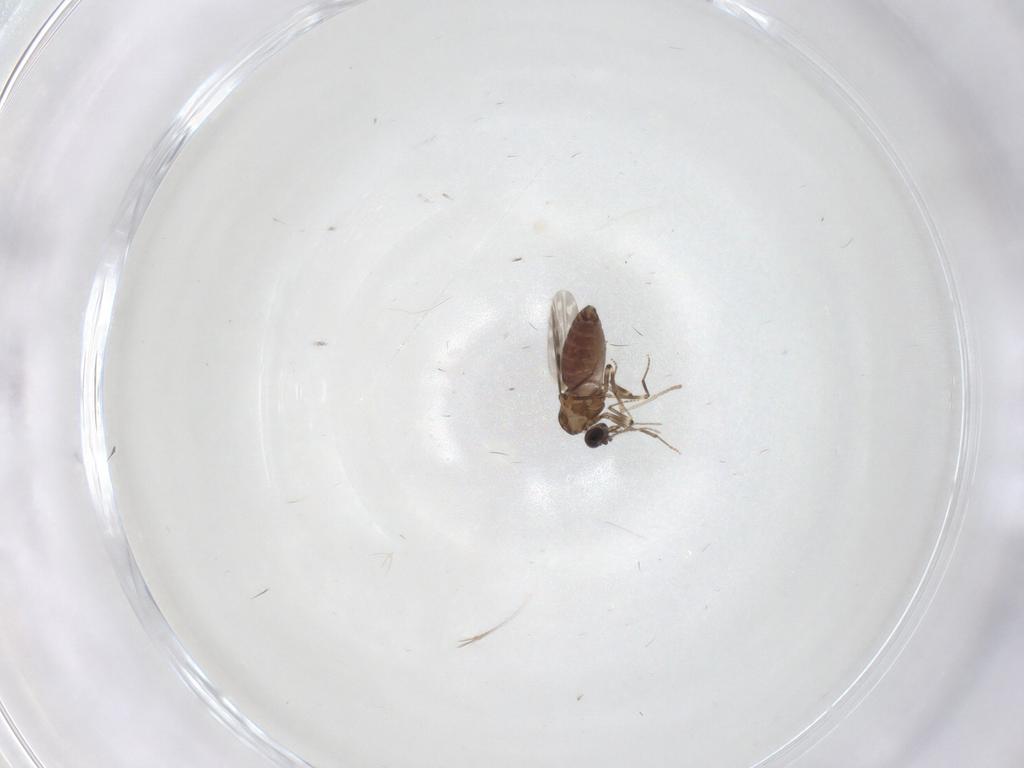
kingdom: Animalia
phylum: Arthropoda
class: Insecta
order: Diptera
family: Ceratopogonidae
